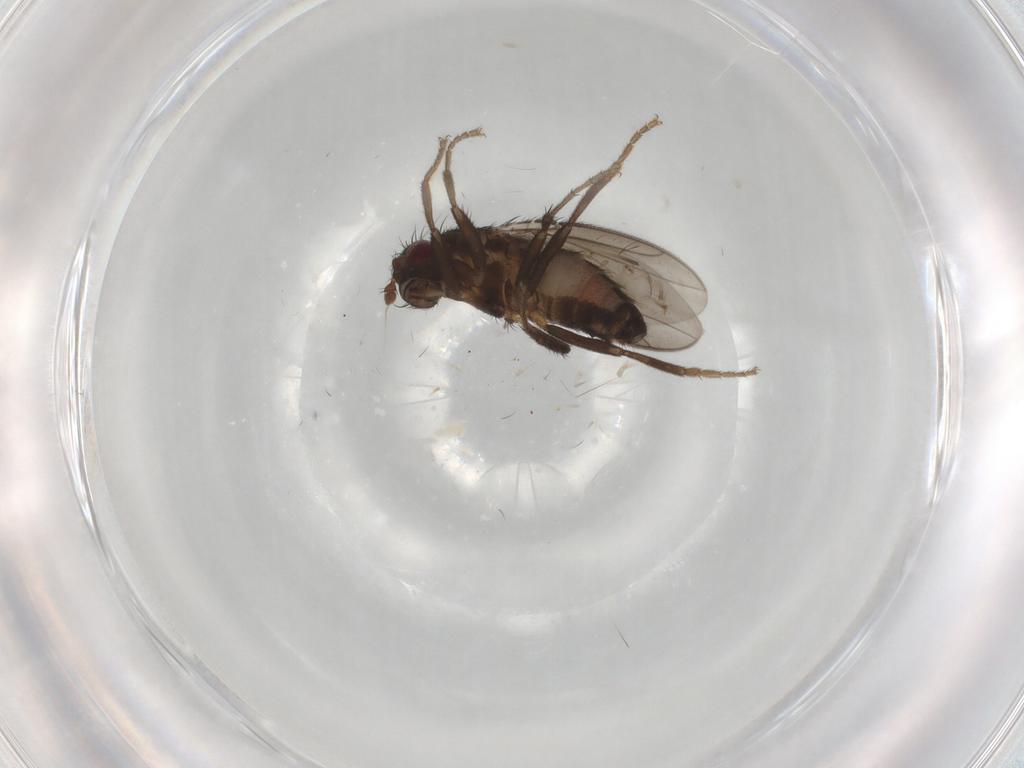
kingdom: Animalia
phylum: Arthropoda
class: Insecta
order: Diptera
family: Sphaeroceridae
